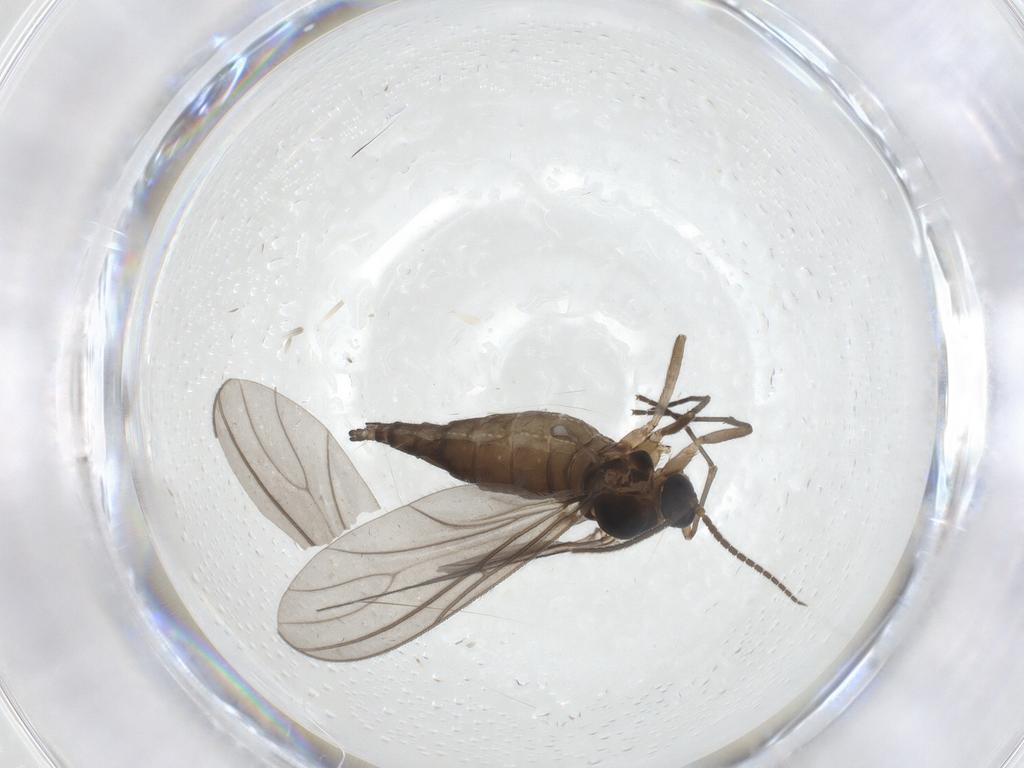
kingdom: Animalia
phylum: Arthropoda
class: Insecta
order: Diptera
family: Sciaridae
